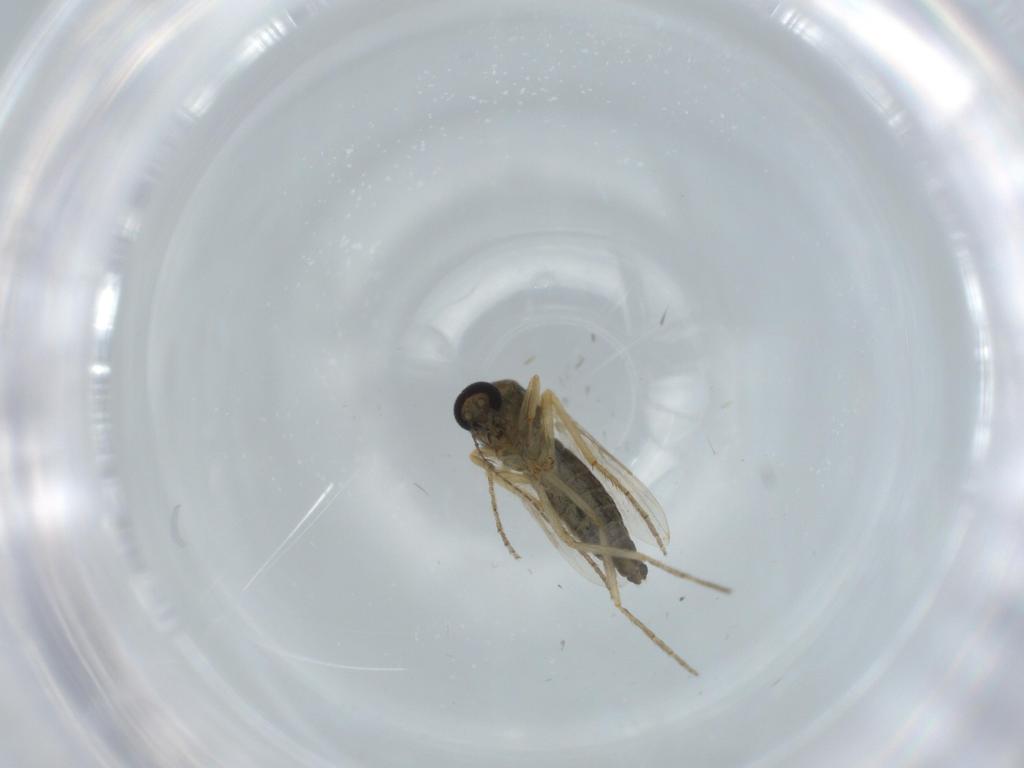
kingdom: Animalia
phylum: Arthropoda
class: Insecta
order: Diptera
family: Ceratopogonidae
